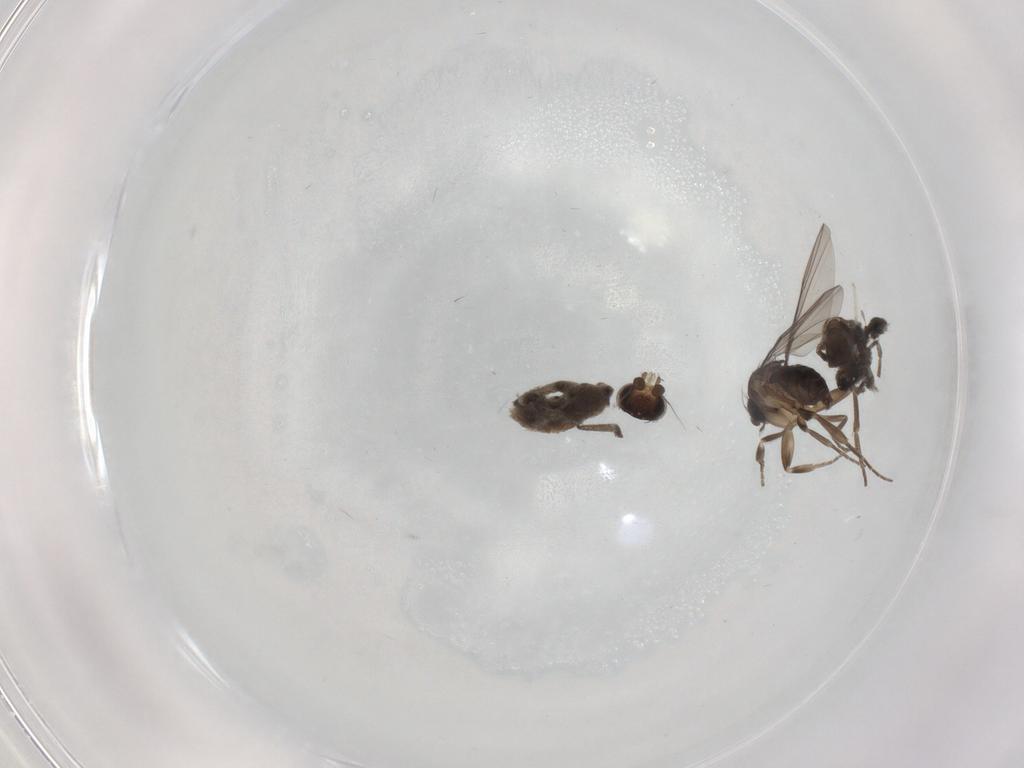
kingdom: Animalia
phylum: Arthropoda
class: Insecta
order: Diptera
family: Sciaridae
